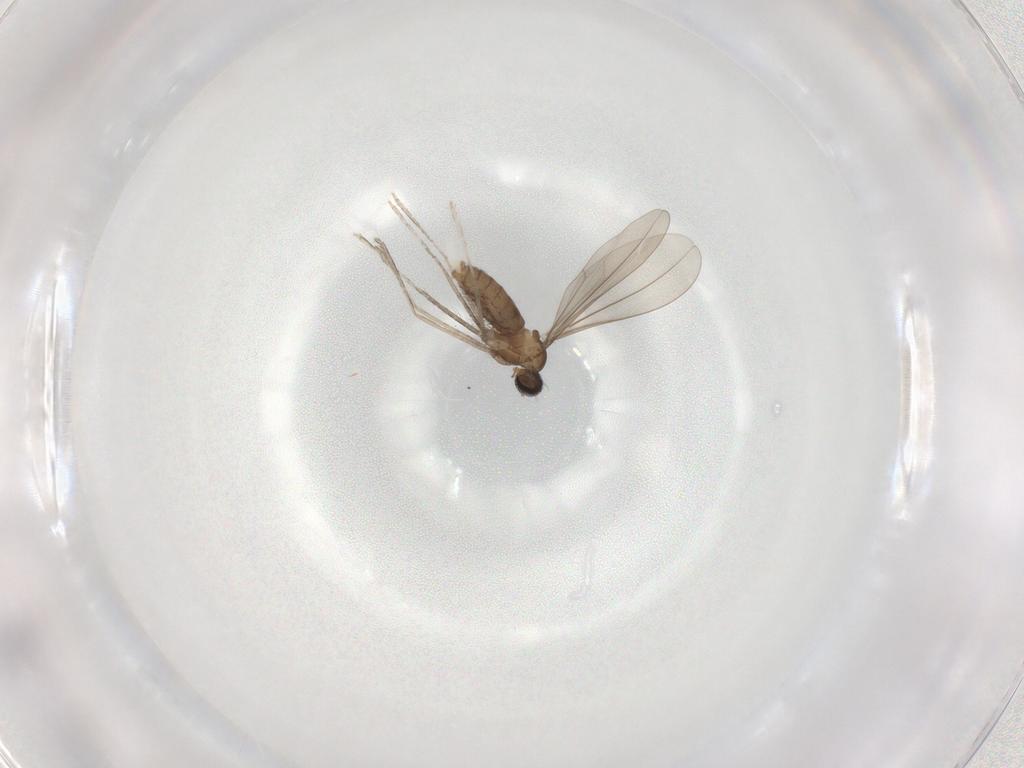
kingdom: Animalia
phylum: Arthropoda
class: Insecta
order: Diptera
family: Cecidomyiidae
